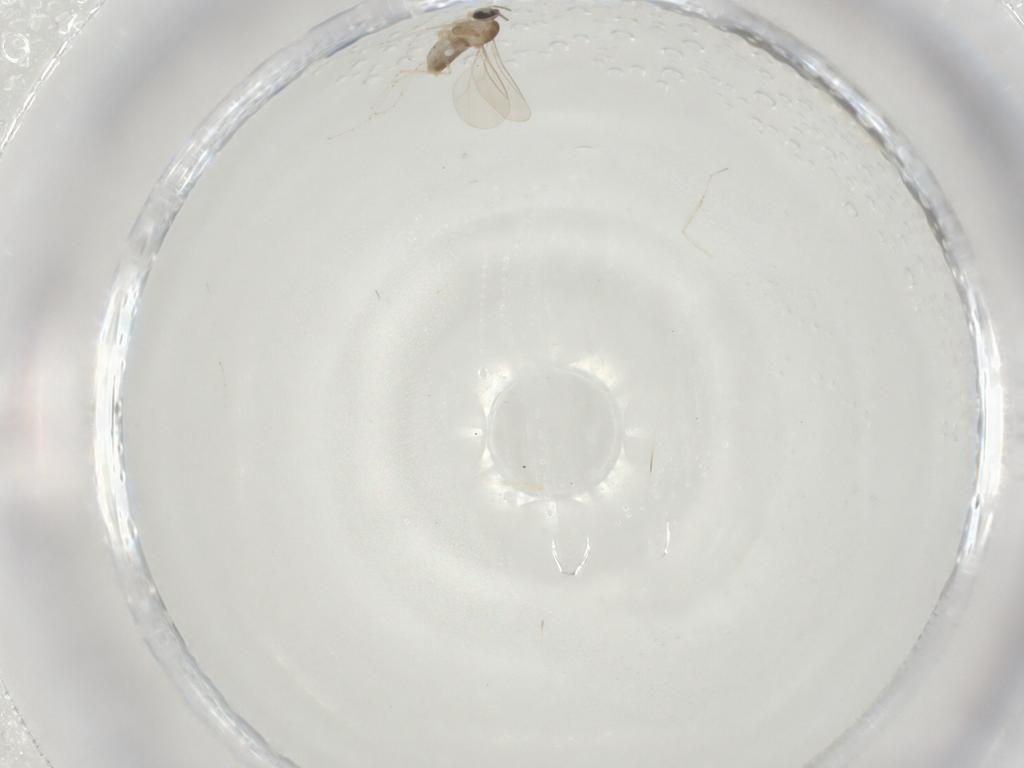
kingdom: Animalia
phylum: Arthropoda
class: Insecta
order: Diptera
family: Cecidomyiidae
